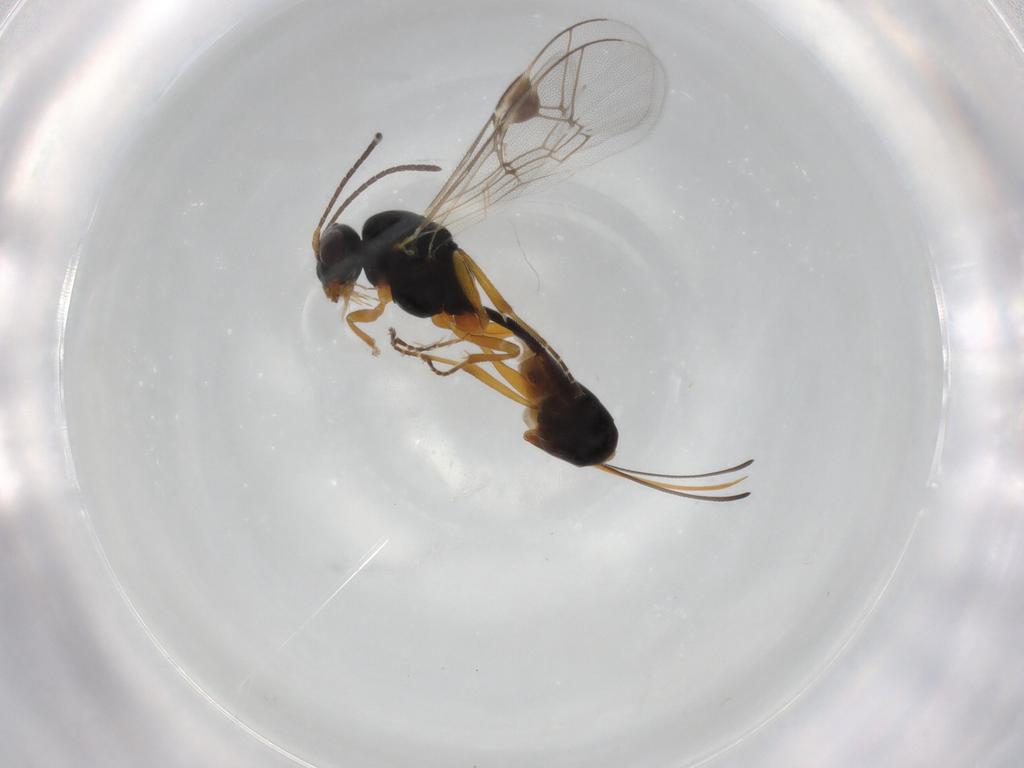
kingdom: Animalia
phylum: Arthropoda
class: Insecta
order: Hymenoptera
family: Ichneumonidae
